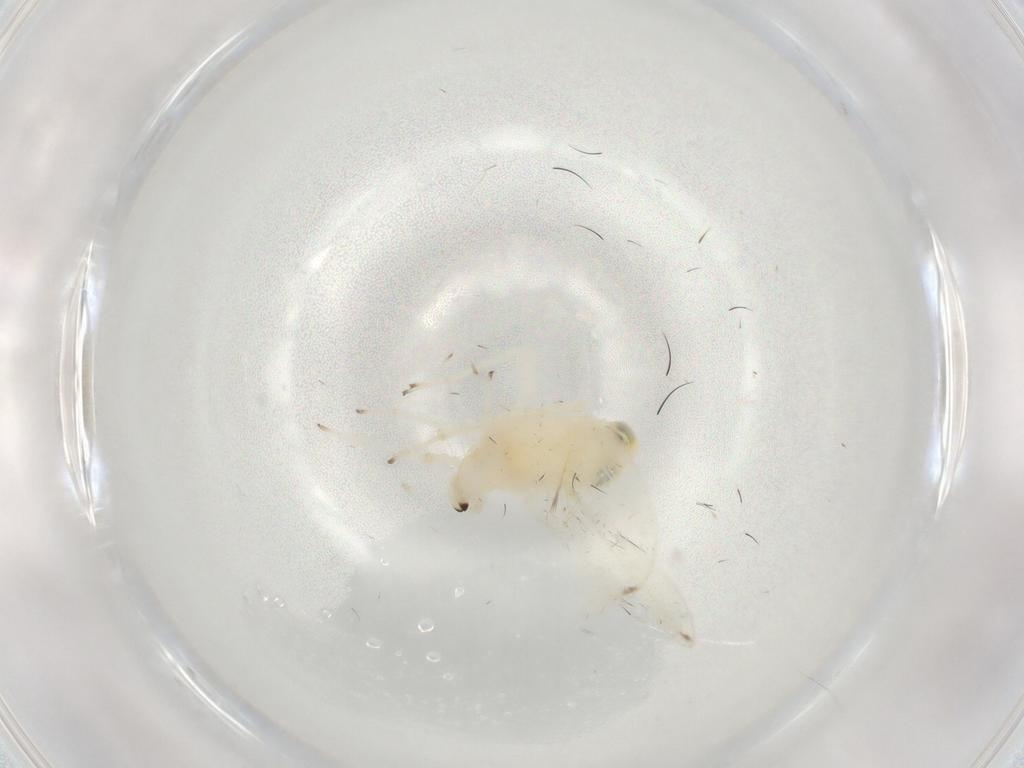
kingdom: Animalia
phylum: Arthropoda
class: Insecta
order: Hemiptera
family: Cicadellidae
